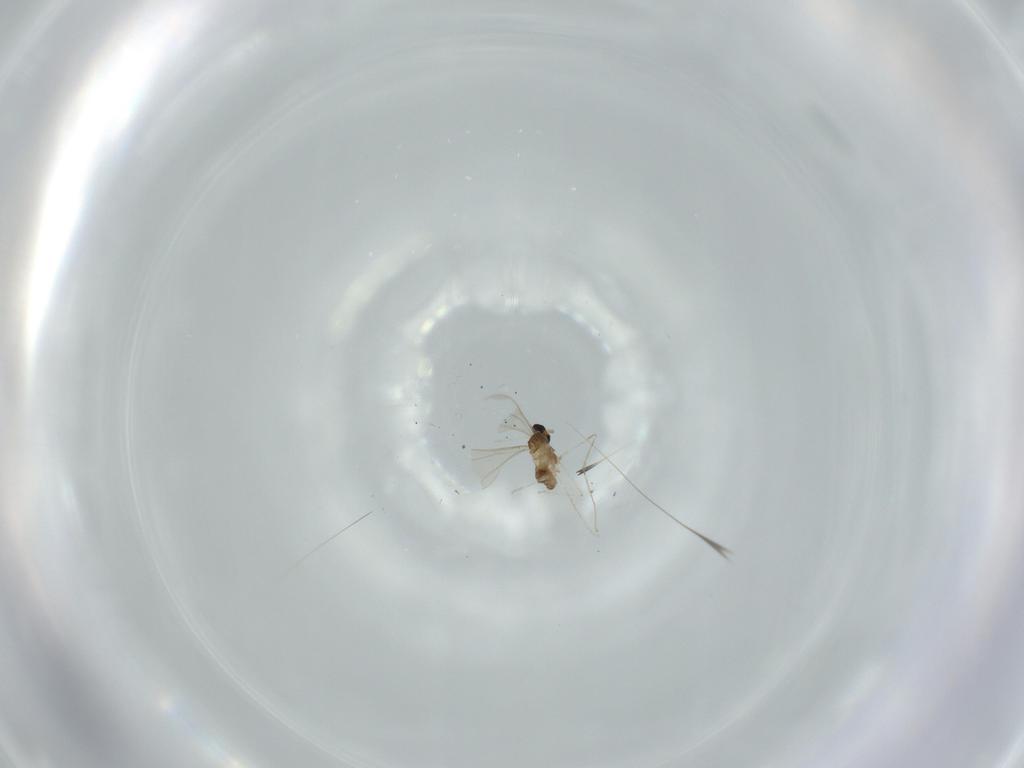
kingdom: Animalia
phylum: Arthropoda
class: Insecta
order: Diptera
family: Cecidomyiidae
